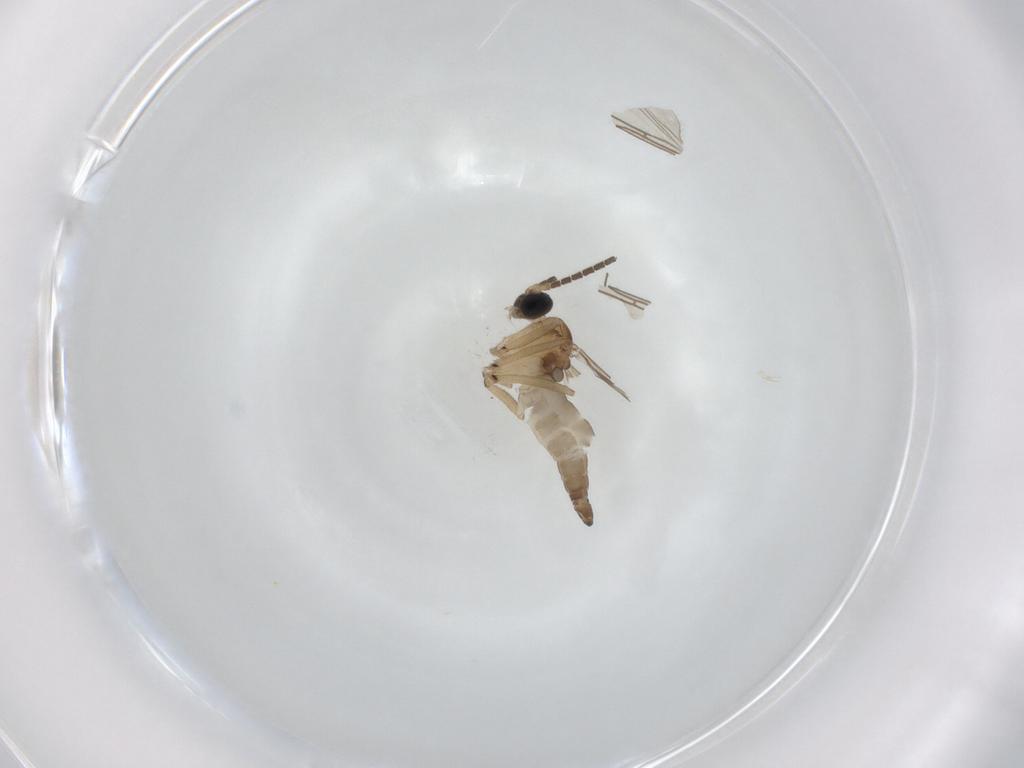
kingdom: Animalia
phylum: Arthropoda
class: Insecta
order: Diptera
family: Sciaridae
